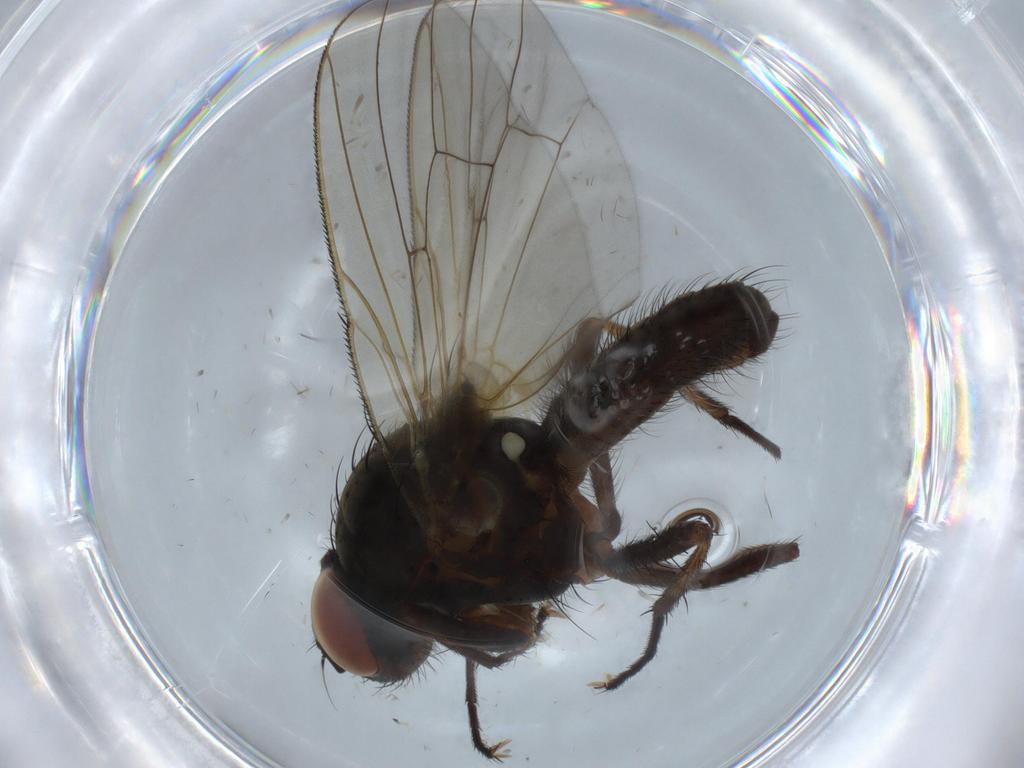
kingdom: Animalia
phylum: Arthropoda
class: Insecta
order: Diptera
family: Anthomyiidae
